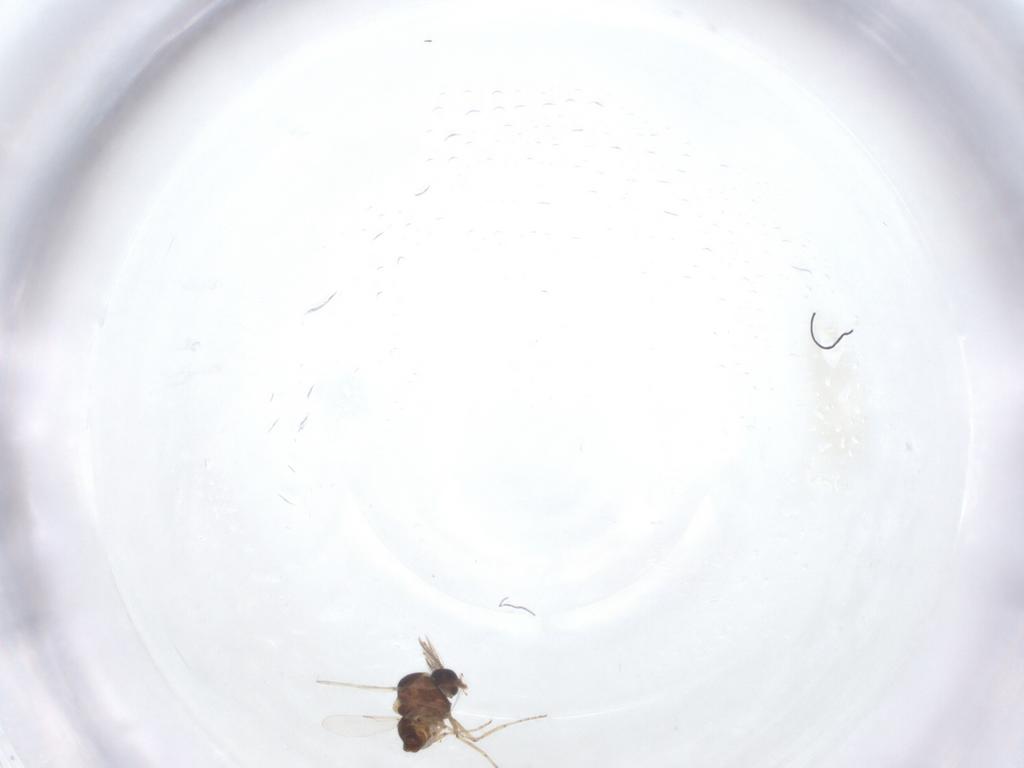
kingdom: Animalia
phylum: Arthropoda
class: Insecta
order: Diptera
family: Ceratopogonidae
